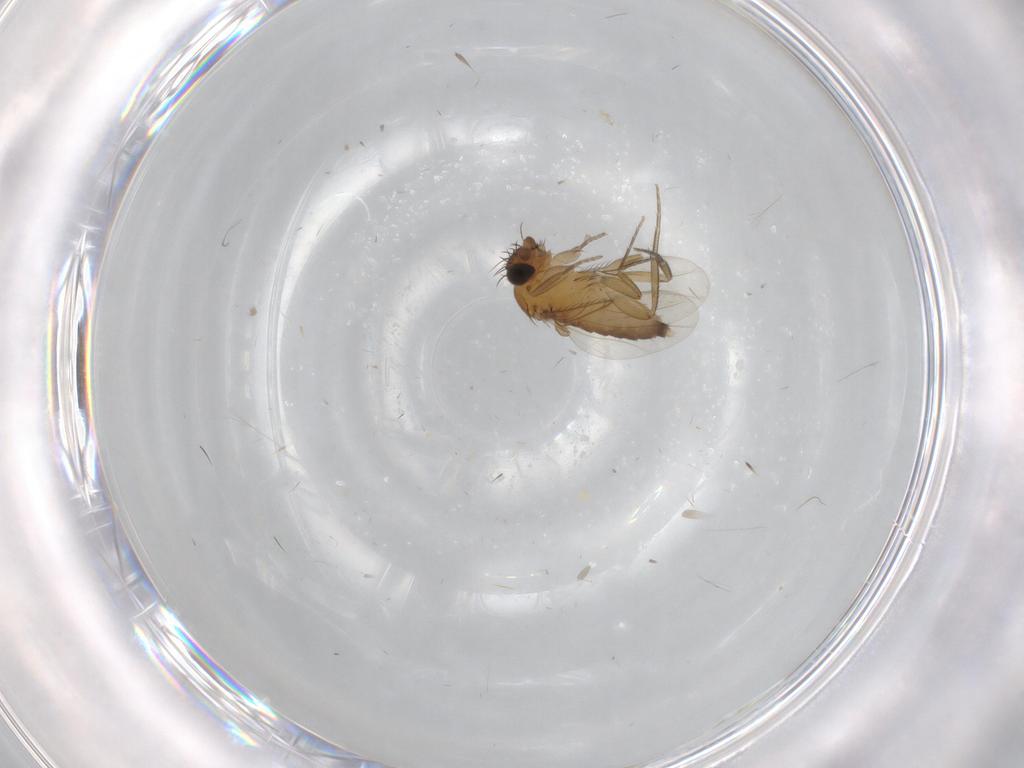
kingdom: Animalia
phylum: Arthropoda
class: Insecta
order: Diptera
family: Phoridae
